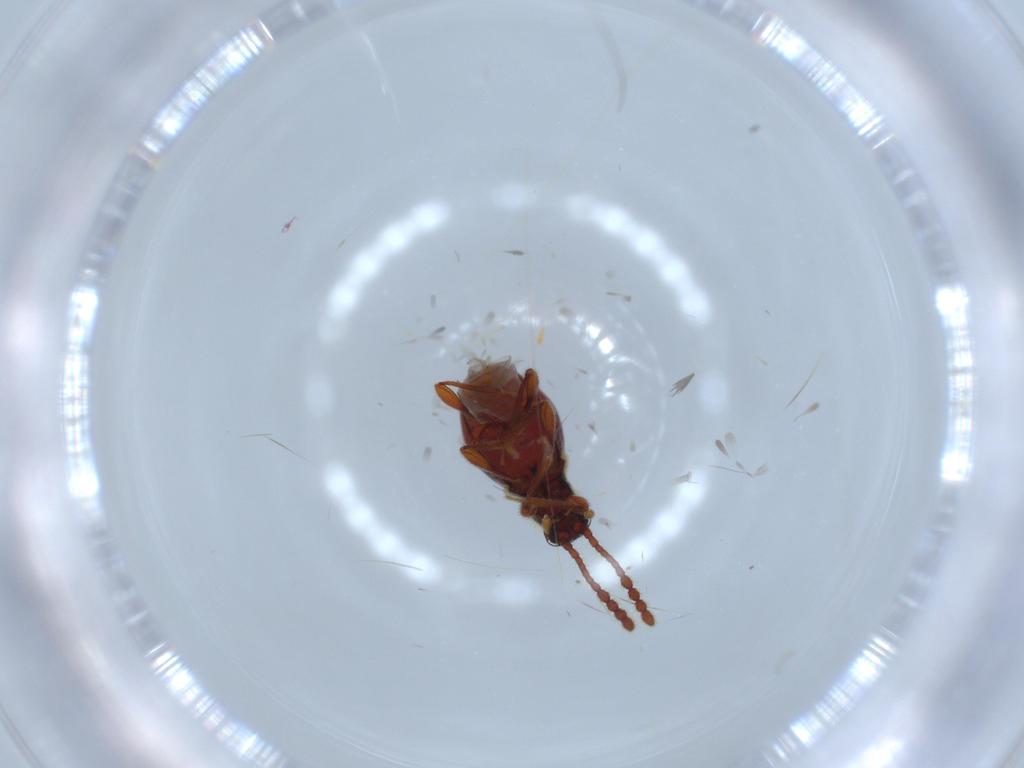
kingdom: Animalia
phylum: Arthropoda
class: Insecta
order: Coleoptera
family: Staphylinidae
